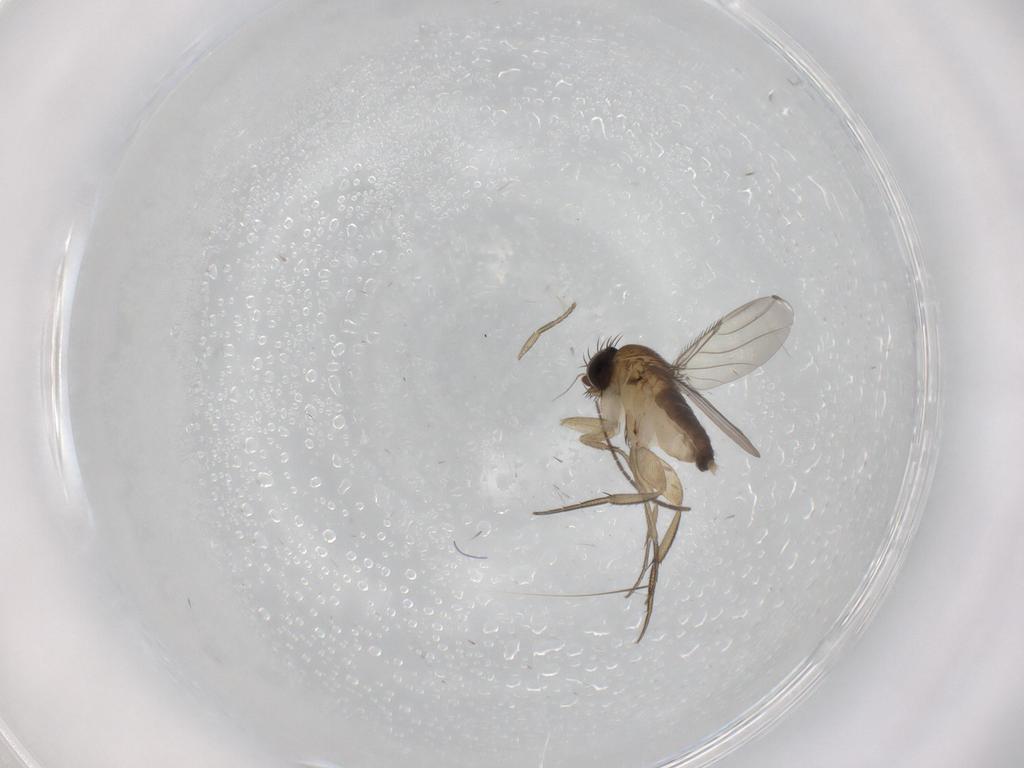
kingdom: Animalia
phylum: Arthropoda
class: Insecta
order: Diptera
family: Phoridae
